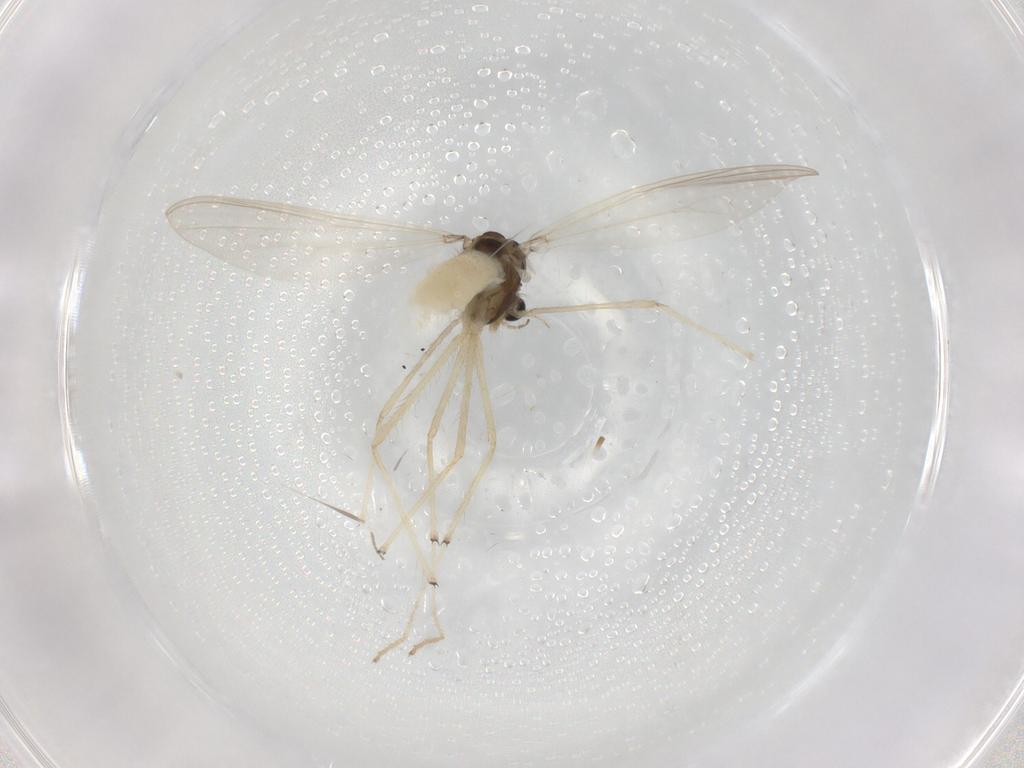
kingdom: Animalia
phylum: Arthropoda
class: Insecta
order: Diptera
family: Chironomidae
